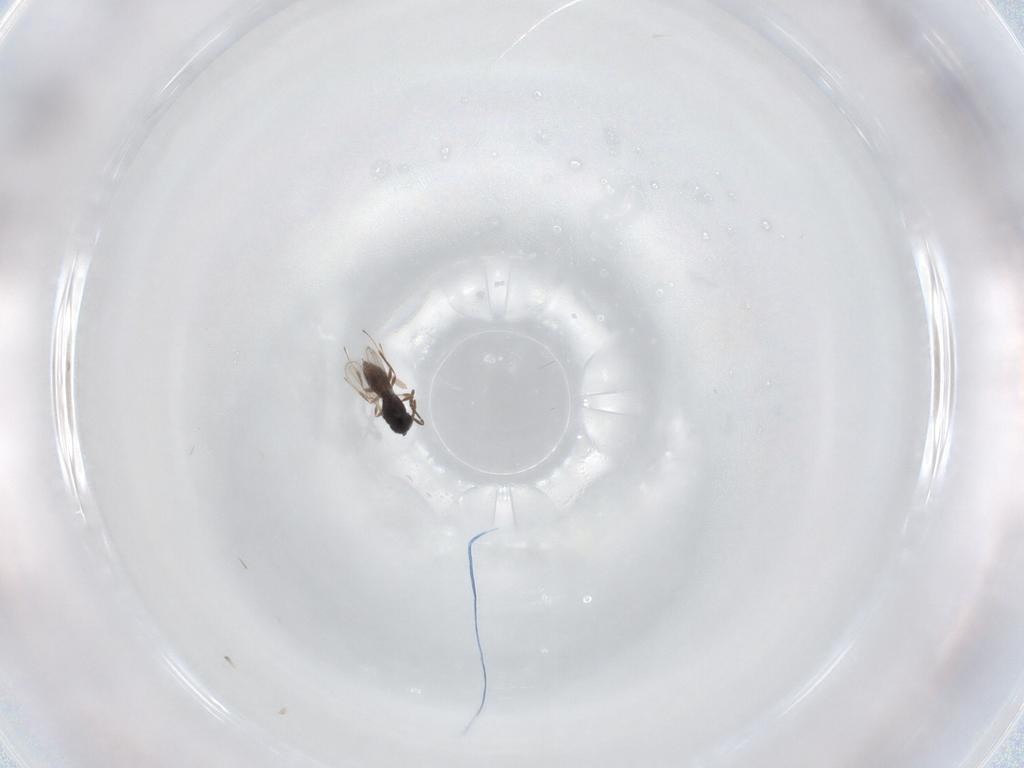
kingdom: Animalia
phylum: Arthropoda
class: Insecta
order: Hymenoptera
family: Scelionidae
